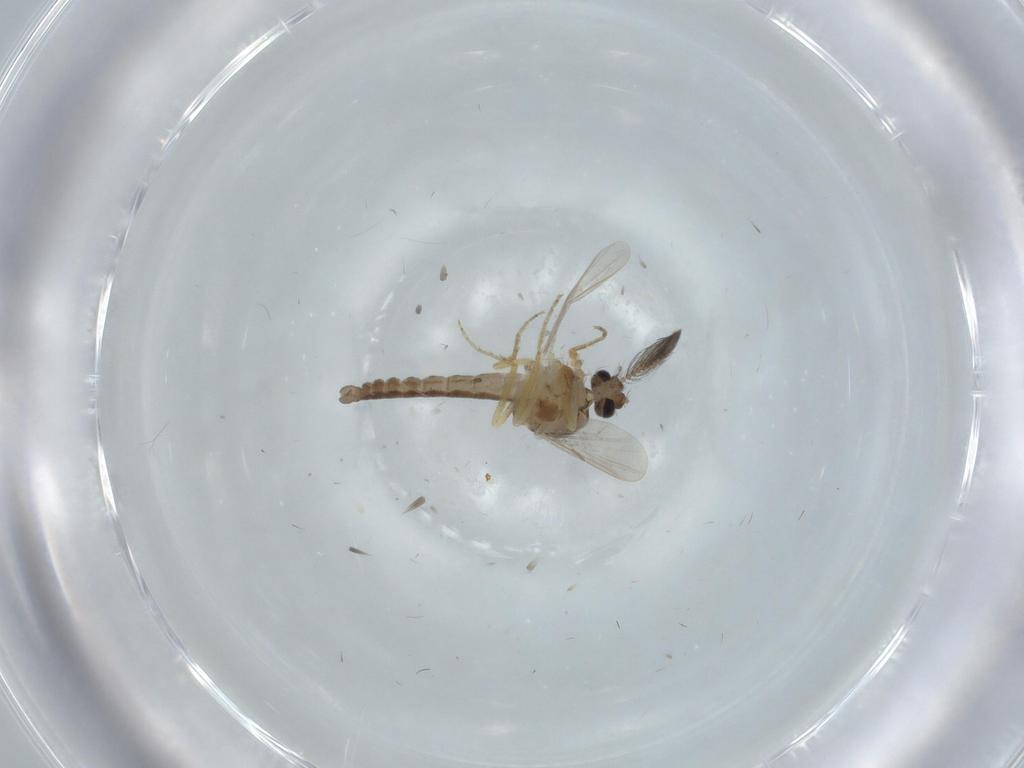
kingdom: Animalia
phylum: Arthropoda
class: Insecta
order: Diptera
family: Ceratopogonidae
